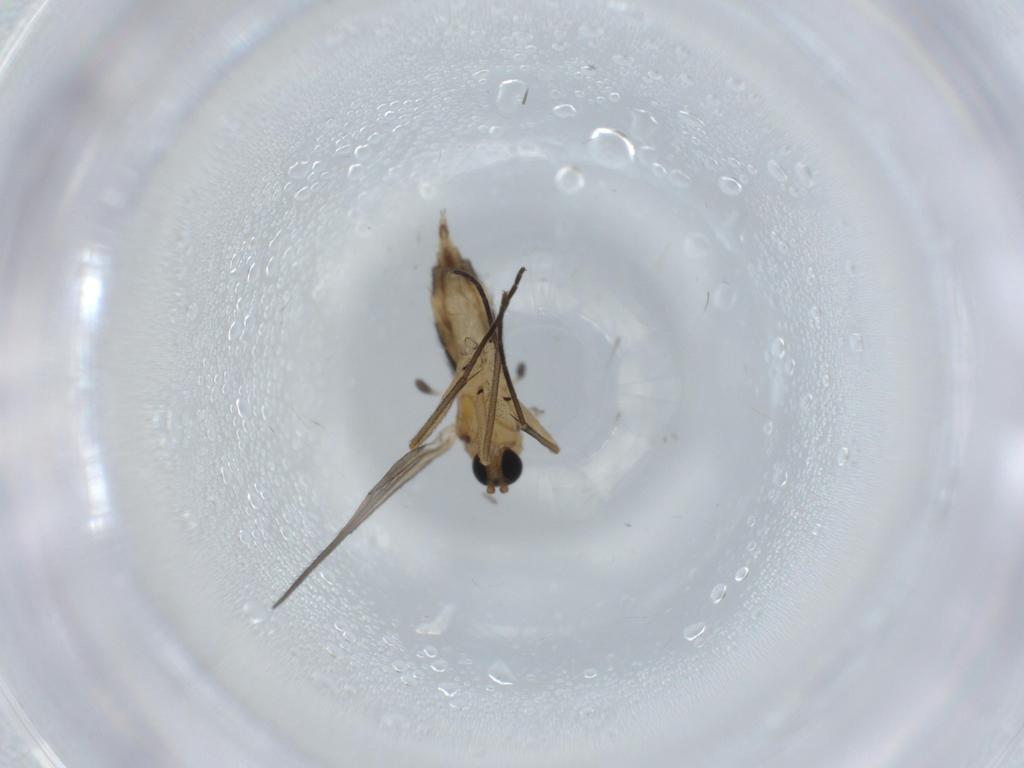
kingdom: Animalia
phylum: Arthropoda
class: Insecta
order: Diptera
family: Sciaridae
